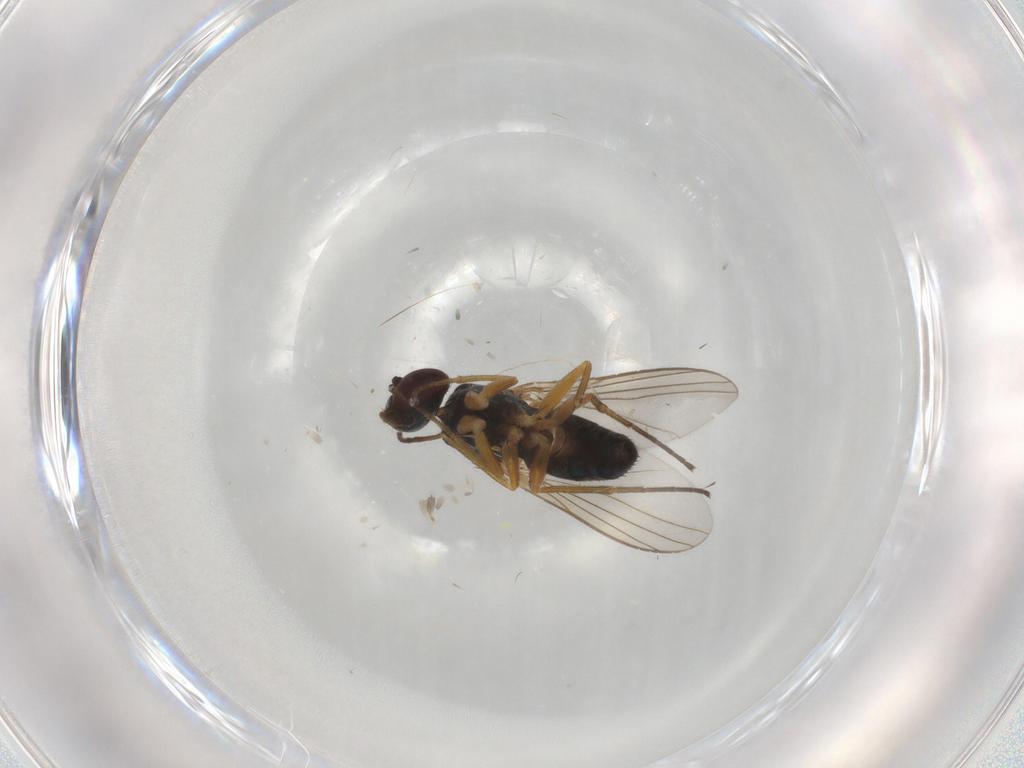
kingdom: Animalia
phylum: Arthropoda
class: Insecta
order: Diptera
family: Dolichopodidae
